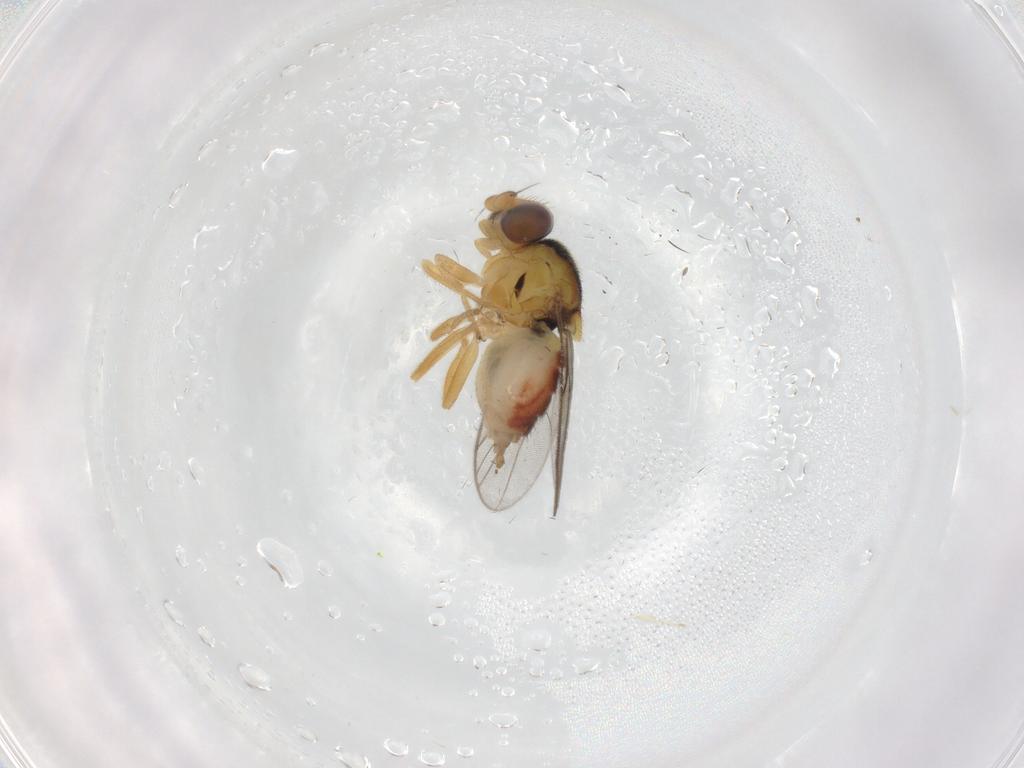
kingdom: Animalia
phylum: Arthropoda
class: Insecta
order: Diptera
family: Chloropidae
